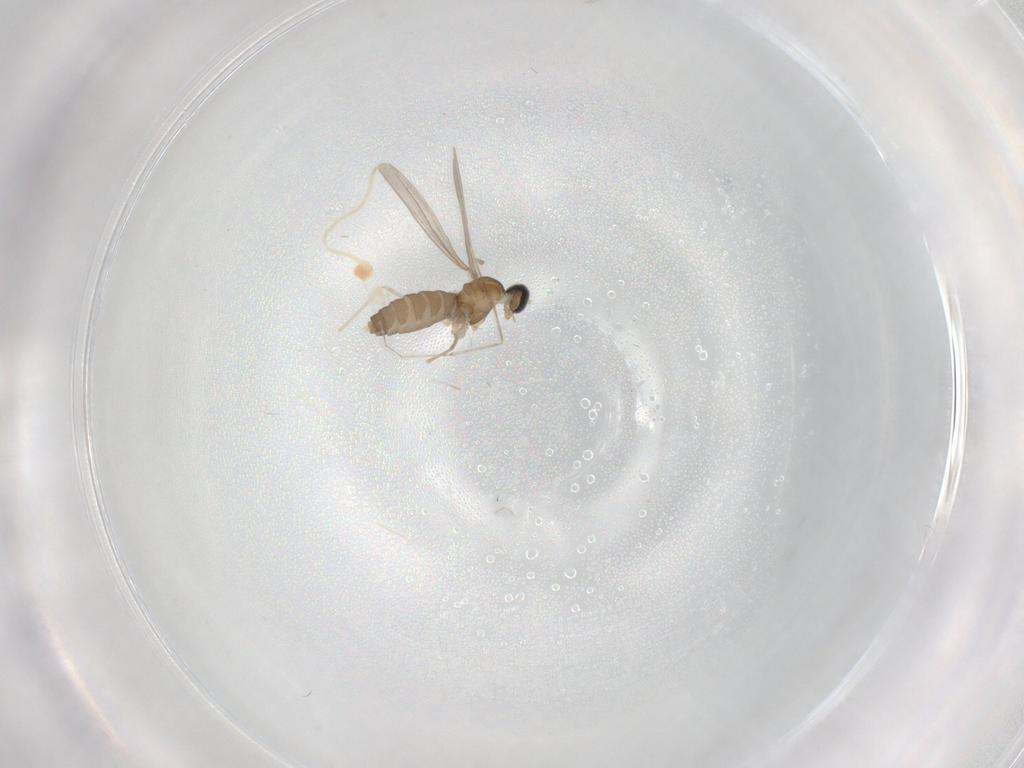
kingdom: Animalia
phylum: Arthropoda
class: Insecta
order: Diptera
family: Cecidomyiidae
